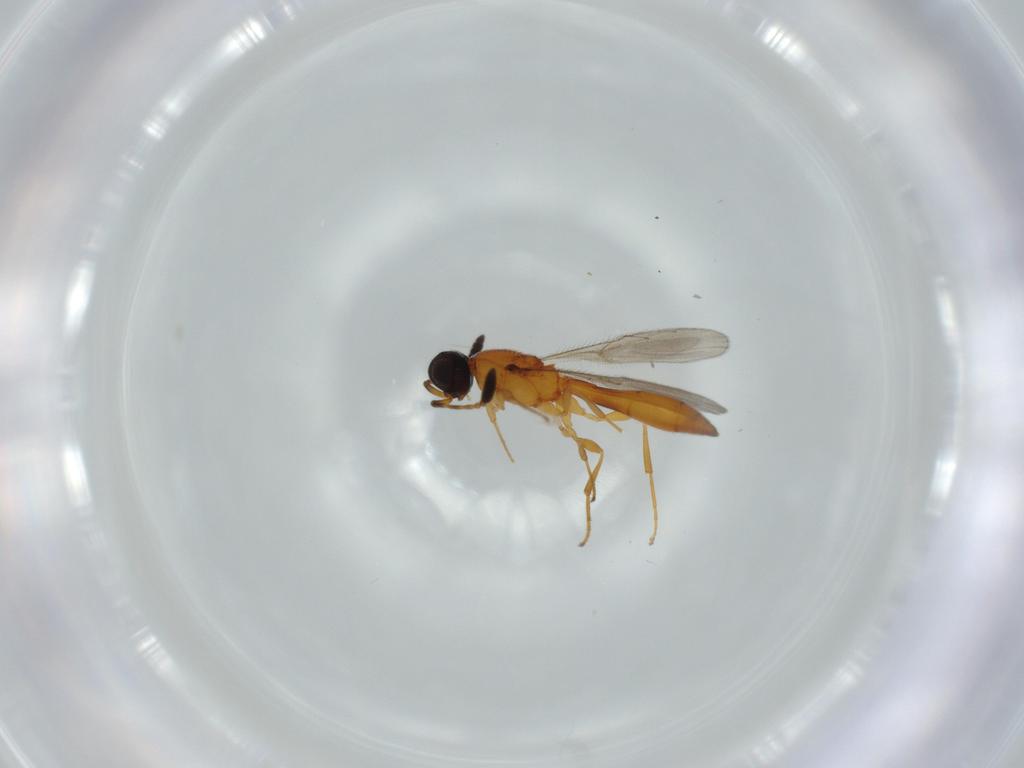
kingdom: Animalia
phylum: Arthropoda
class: Insecta
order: Hymenoptera
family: Scelionidae
